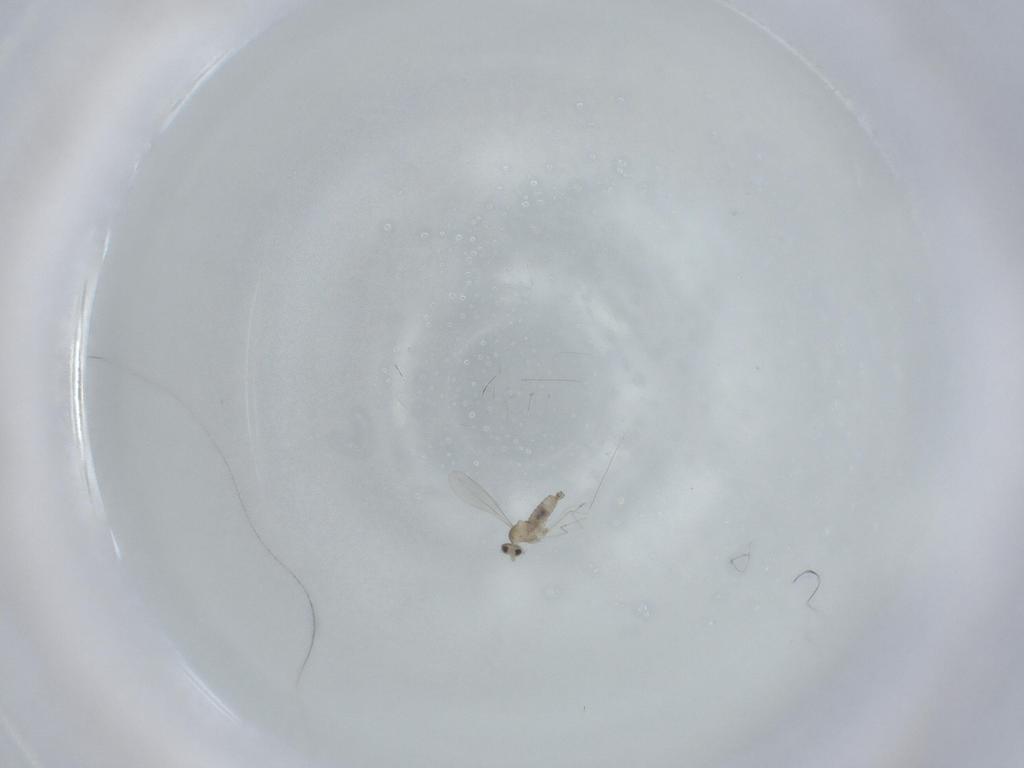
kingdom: Animalia
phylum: Arthropoda
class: Insecta
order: Diptera
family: Cecidomyiidae
